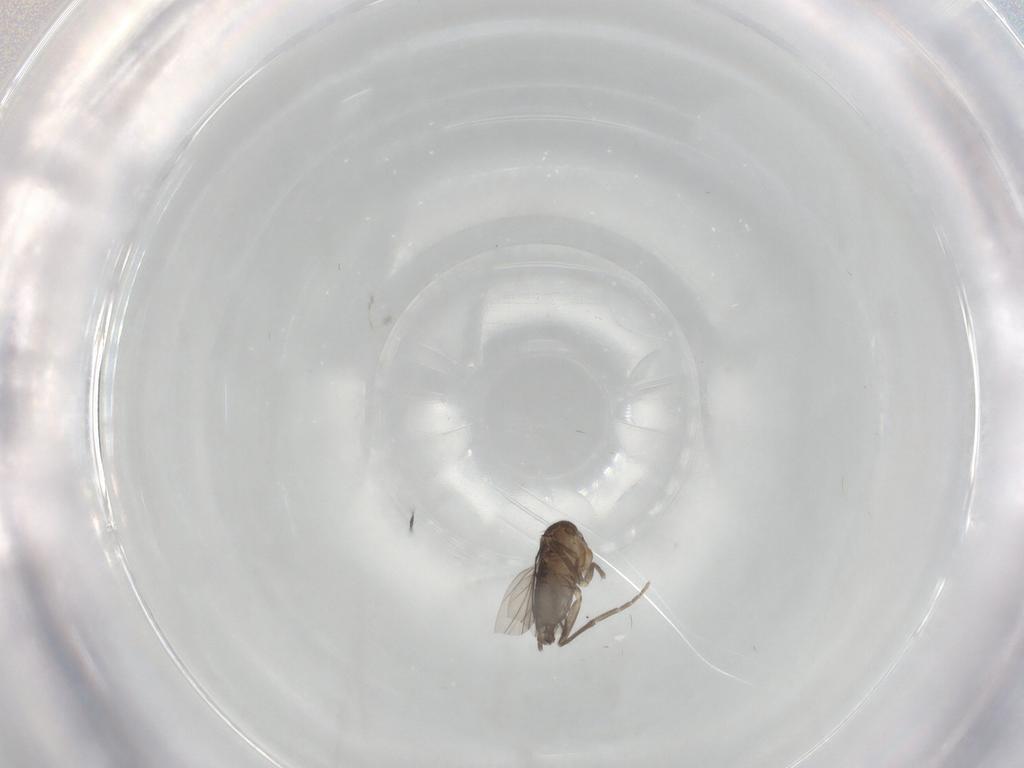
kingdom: Animalia
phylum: Arthropoda
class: Insecta
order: Diptera
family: Phoridae
